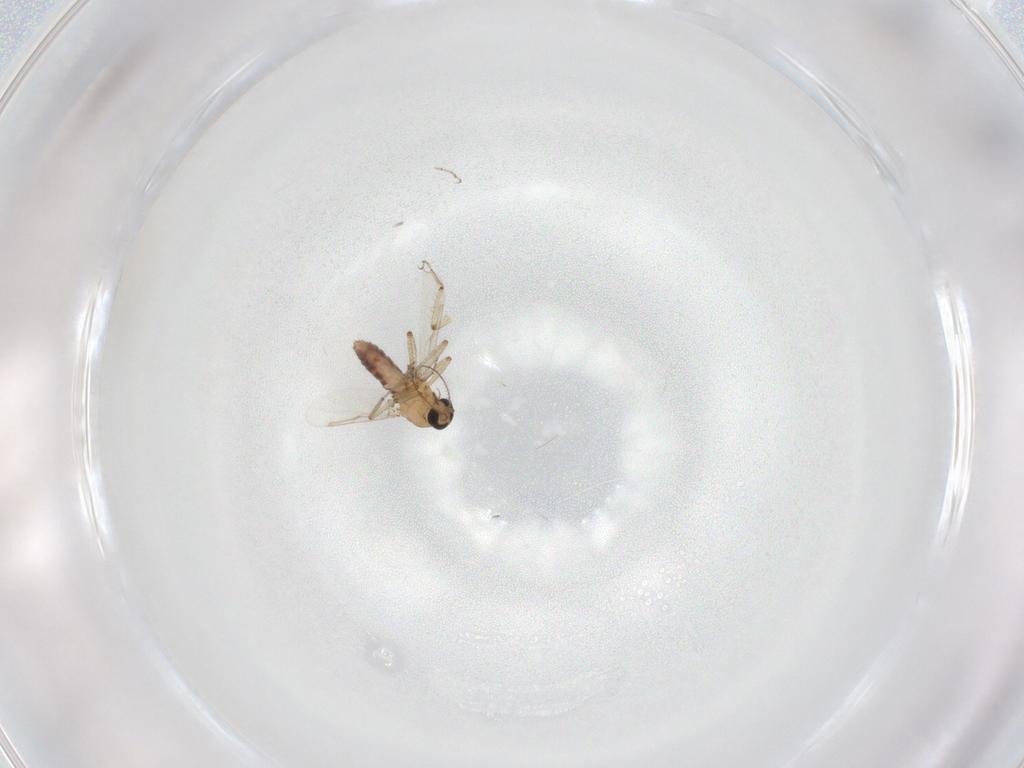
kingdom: Animalia
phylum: Arthropoda
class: Insecta
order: Diptera
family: Ceratopogonidae
